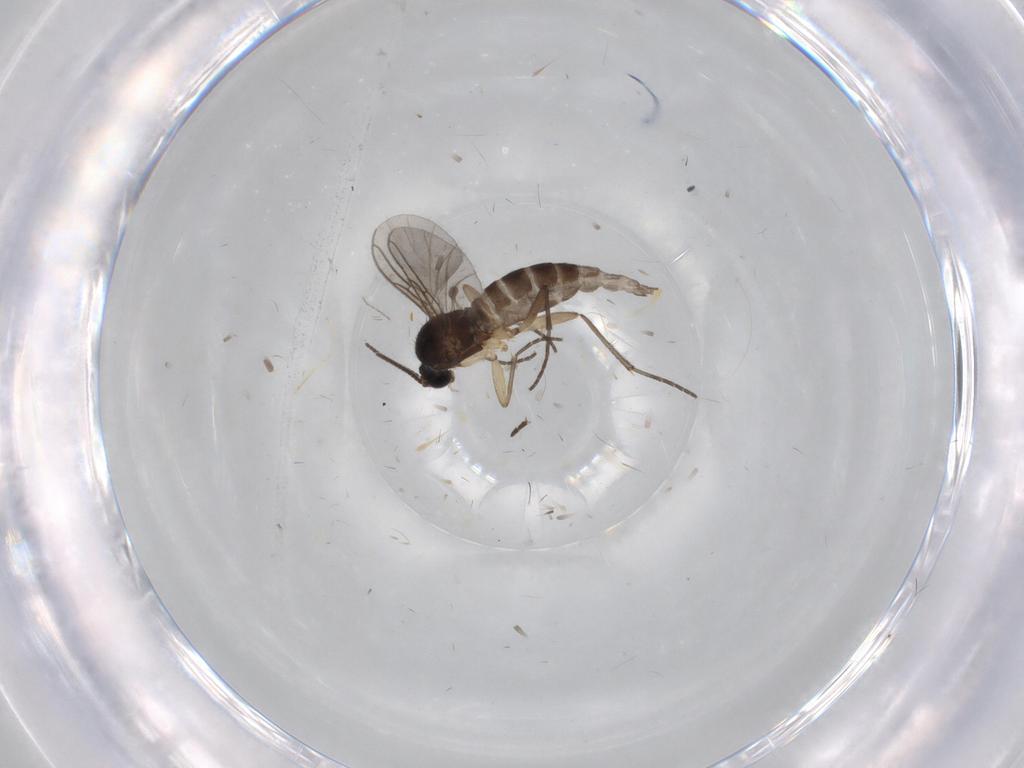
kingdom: Animalia
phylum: Arthropoda
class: Insecta
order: Diptera
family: Sciaridae
